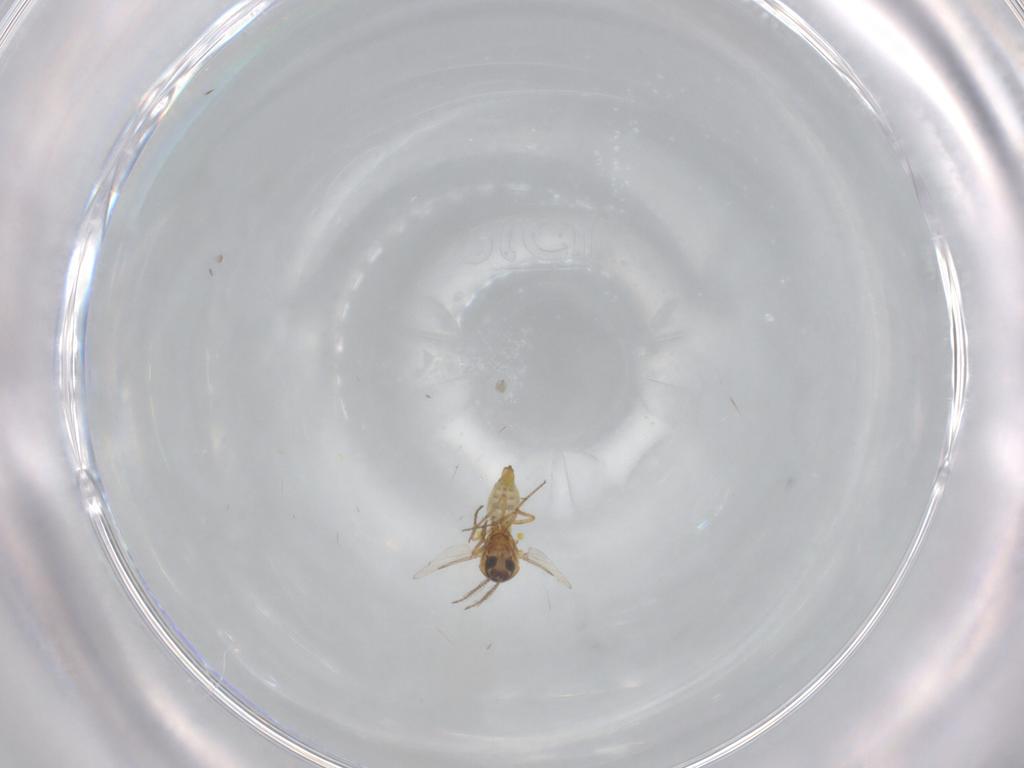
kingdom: Animalia
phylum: Arthropoda
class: Insecta
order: Diptera
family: Ceratopogonidae
